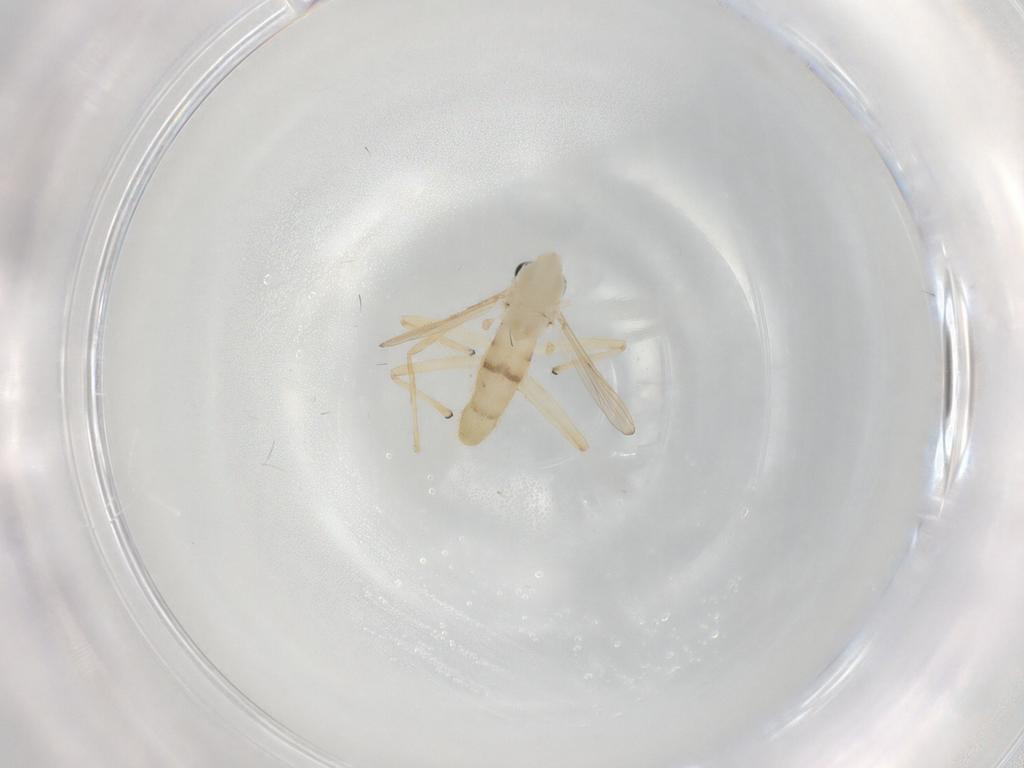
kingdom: Animalia
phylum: Arthropoda
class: Insecta
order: Diptera
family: Chironomidae
